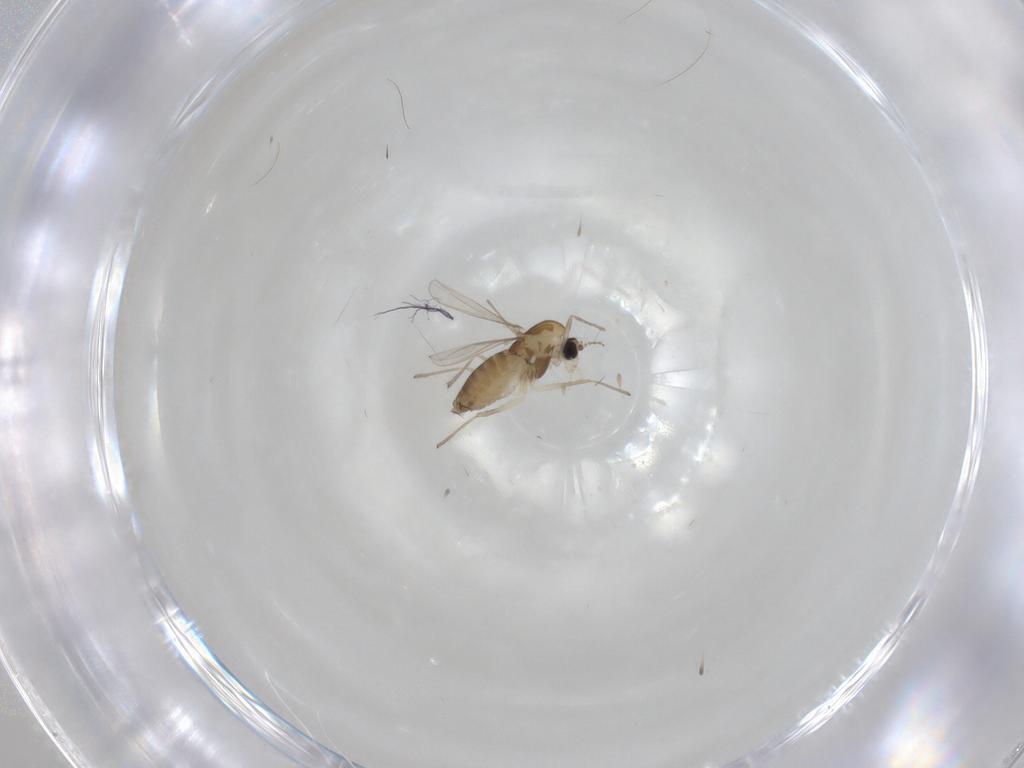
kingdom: Animalia
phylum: Arthropoda
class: Insecta
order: Diptera
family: Chironomidae
